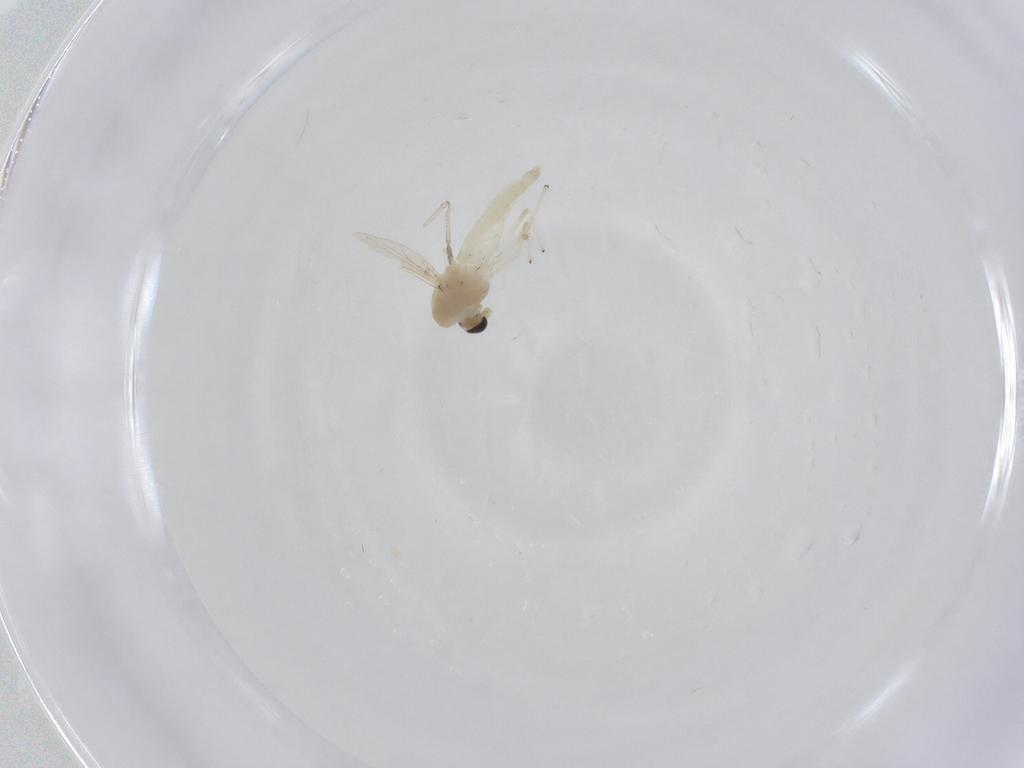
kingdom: Animalia
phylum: Arthropoda
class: Insecta
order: Diptera
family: Chironomidae
